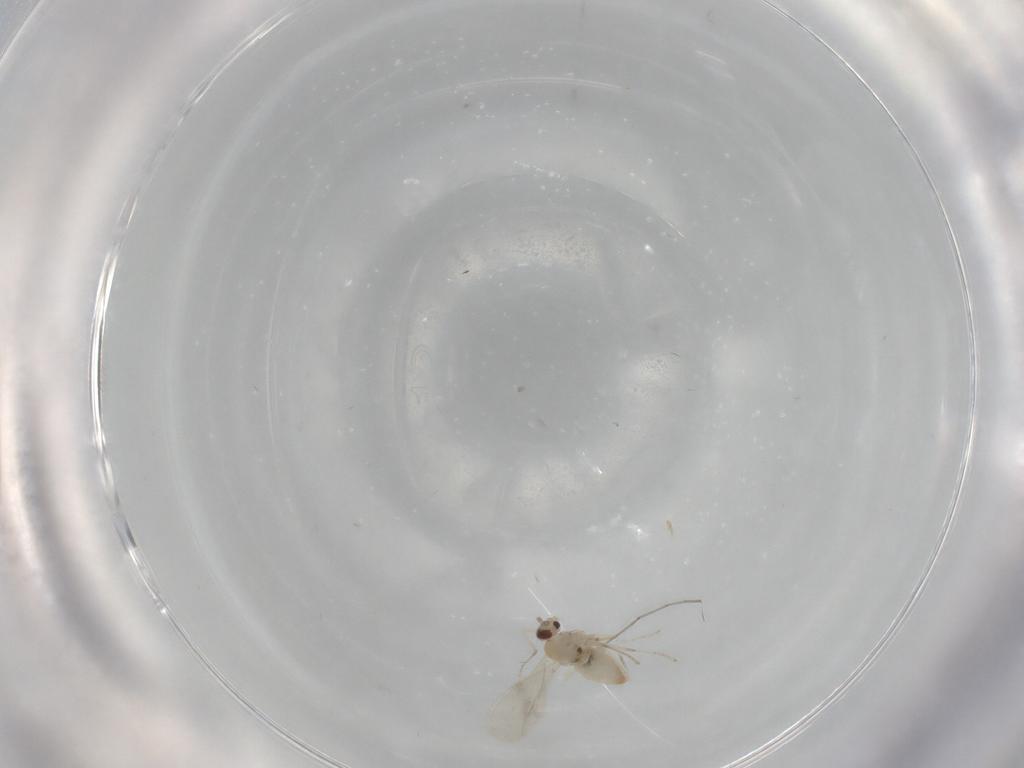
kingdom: Animalia
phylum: Arthropoda
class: Insecta
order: Diptera
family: Cecidomyiidae
